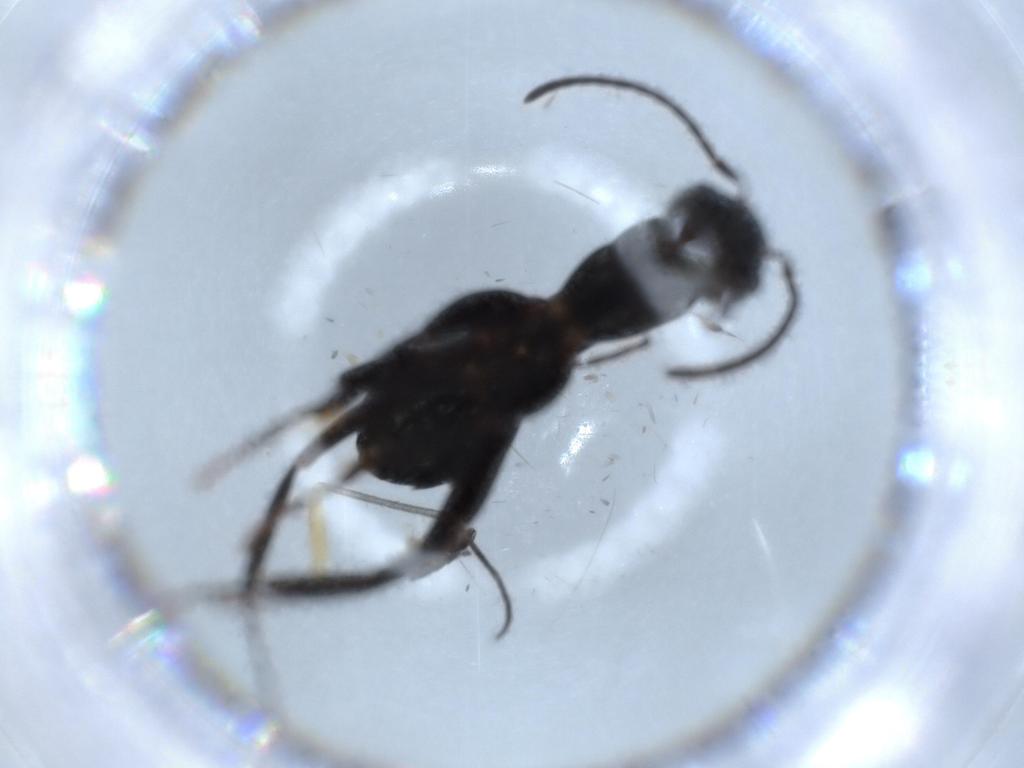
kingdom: Animalia
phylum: Arthropoda
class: Insecta
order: Hymenoptera
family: Formicidae
